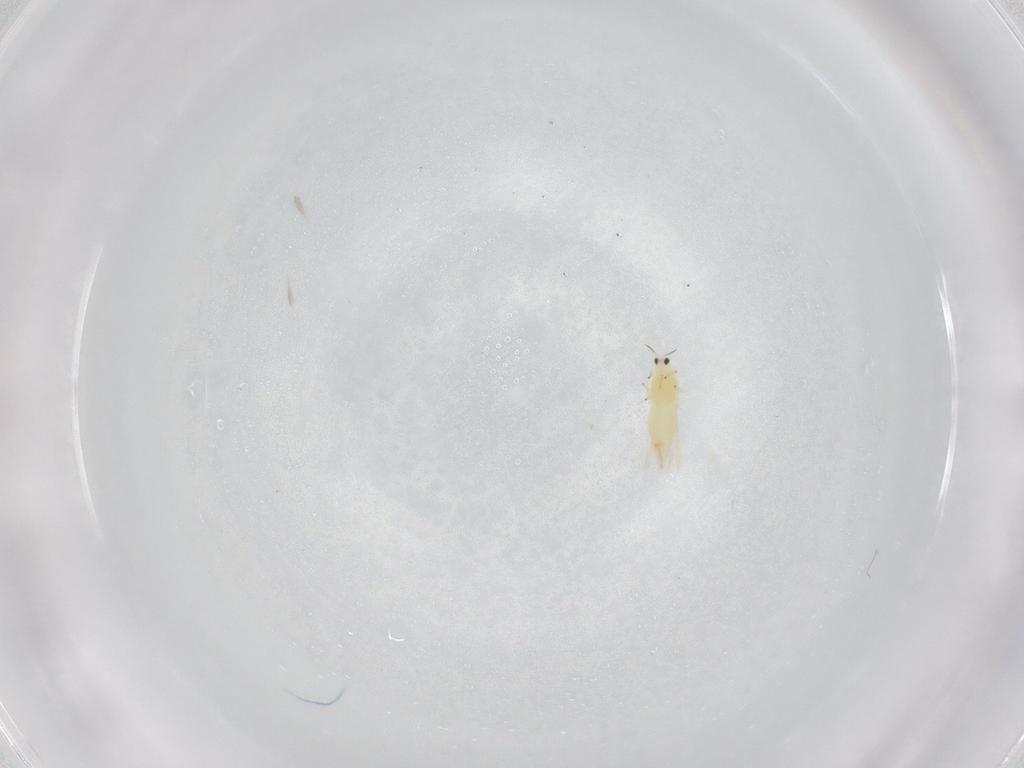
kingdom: Animalia
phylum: Arthropoda
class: Insecta
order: Thysanoptera
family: Thripidae
